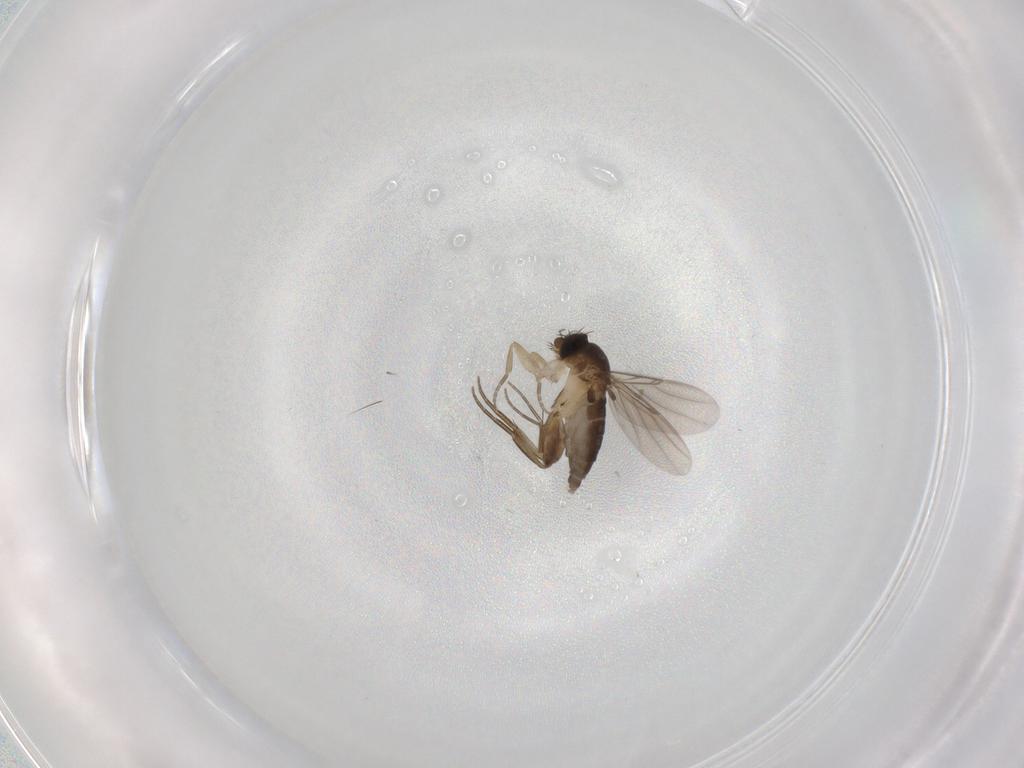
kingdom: Animalia
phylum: Arthropoda
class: Insecta
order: Diptera
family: Phoridae
